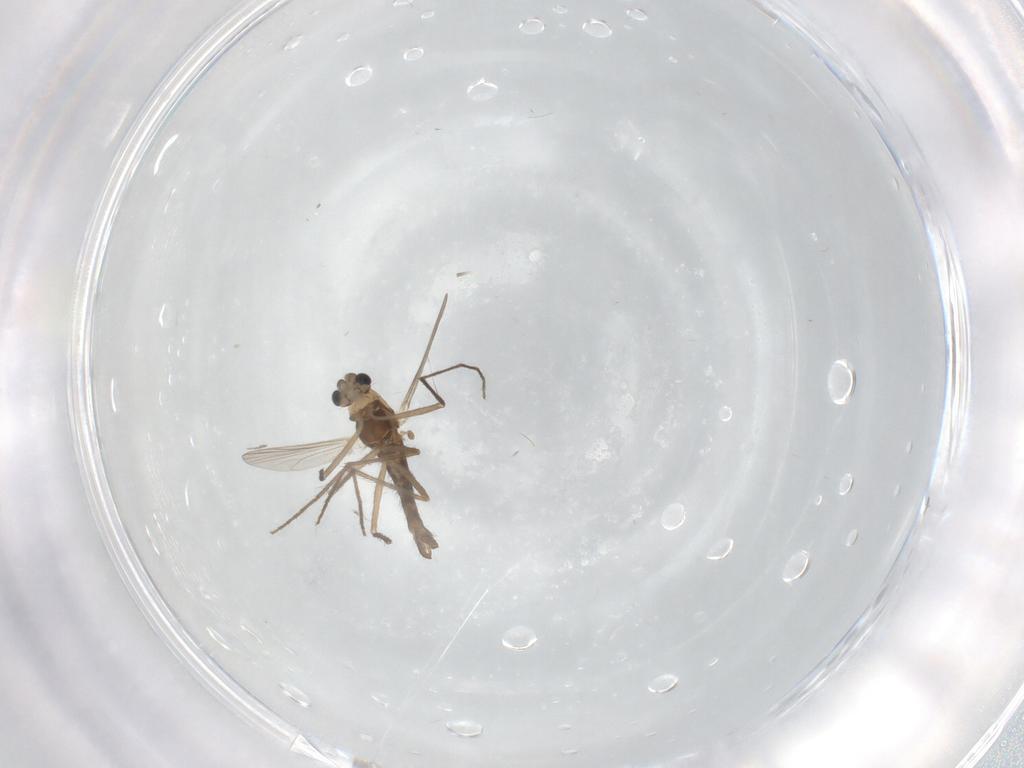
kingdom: Animalia
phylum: Arthropoda
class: Insecta
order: Diptera
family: Chironomidae
